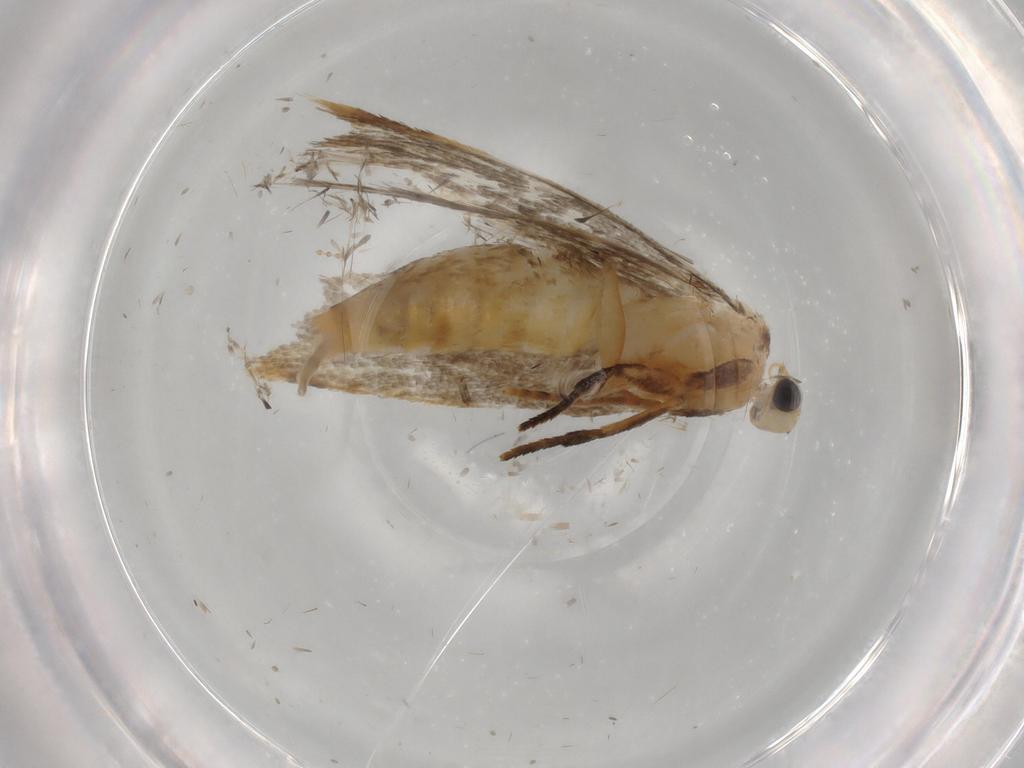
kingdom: Animalia
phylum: Arthropoda
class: Insecta
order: Lepidoptera
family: Tineidae
